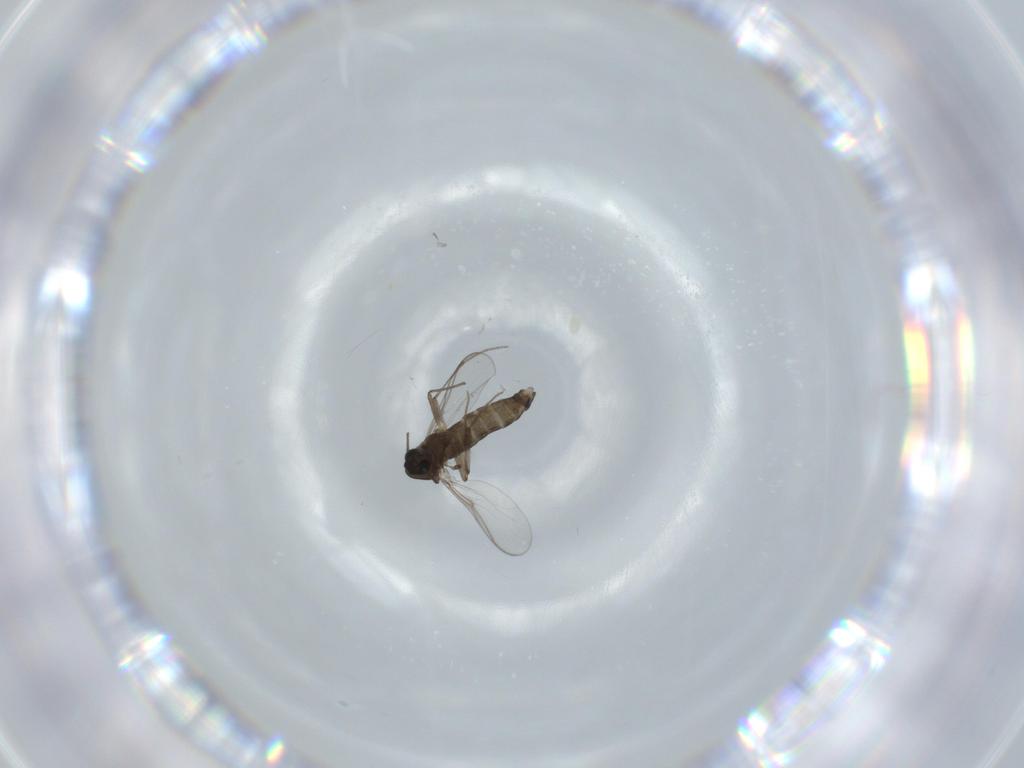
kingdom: Animalia
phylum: Arthropoda
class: Insecta
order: Diptera
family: Chironomidae
